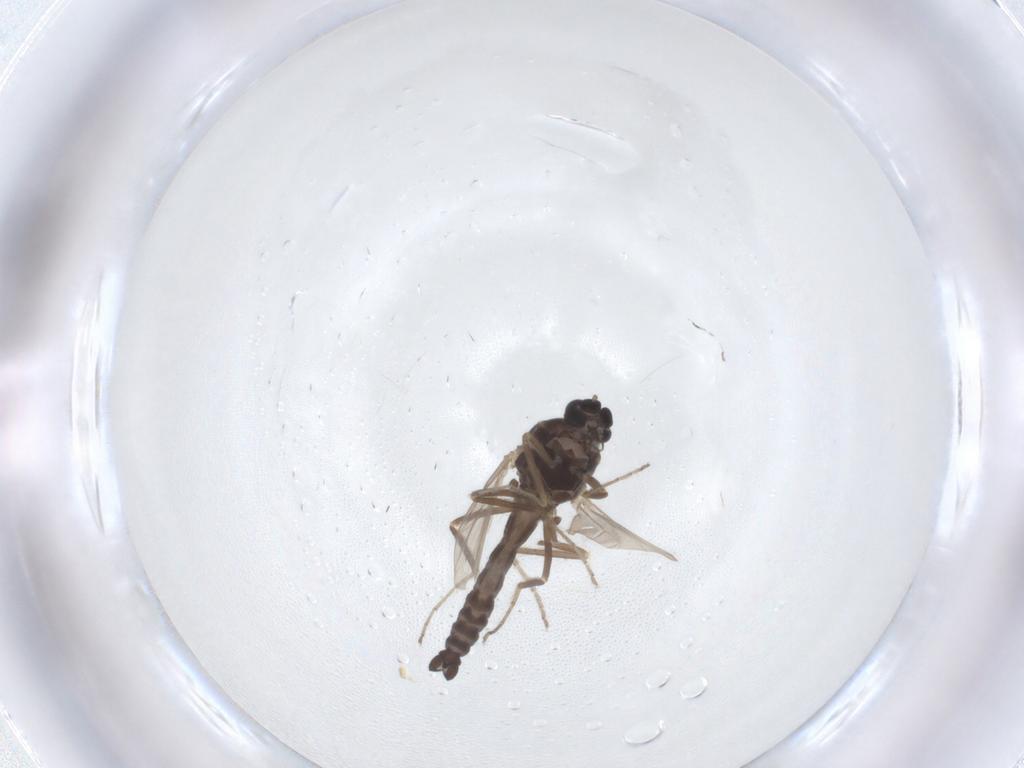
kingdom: Animalia
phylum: Arthropoda
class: Insecta
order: Diptera
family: Ceratopogonidae
